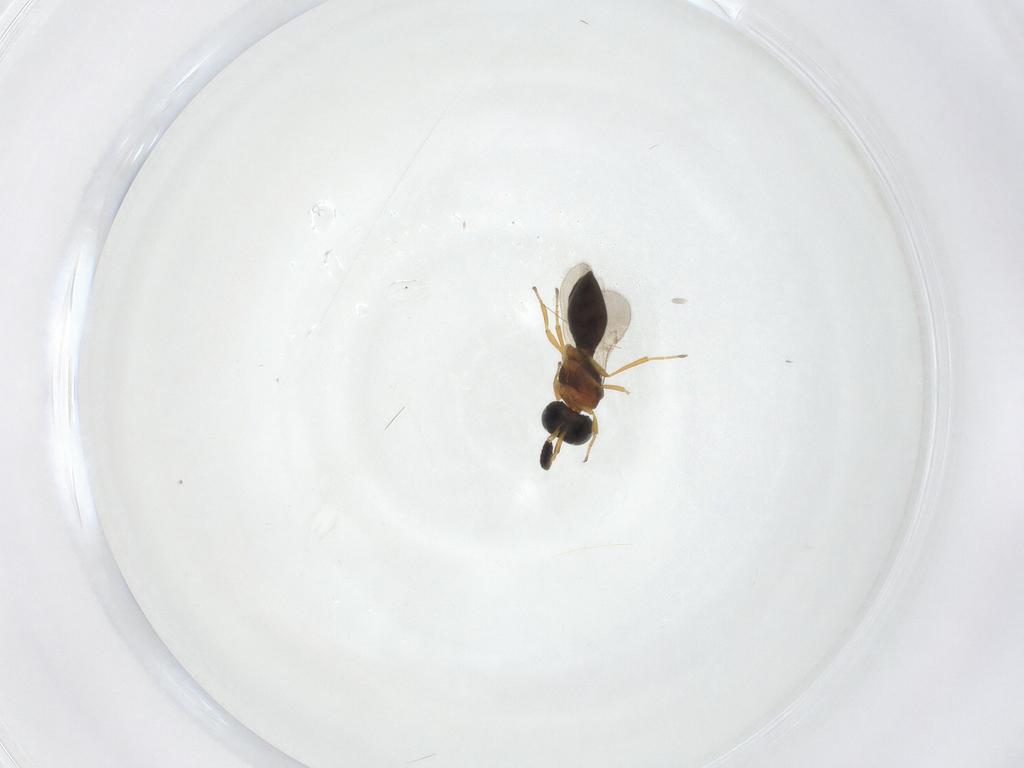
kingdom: Animalia
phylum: Arthropoda
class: Insecta
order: Hymenoptera
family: Scelionidae
